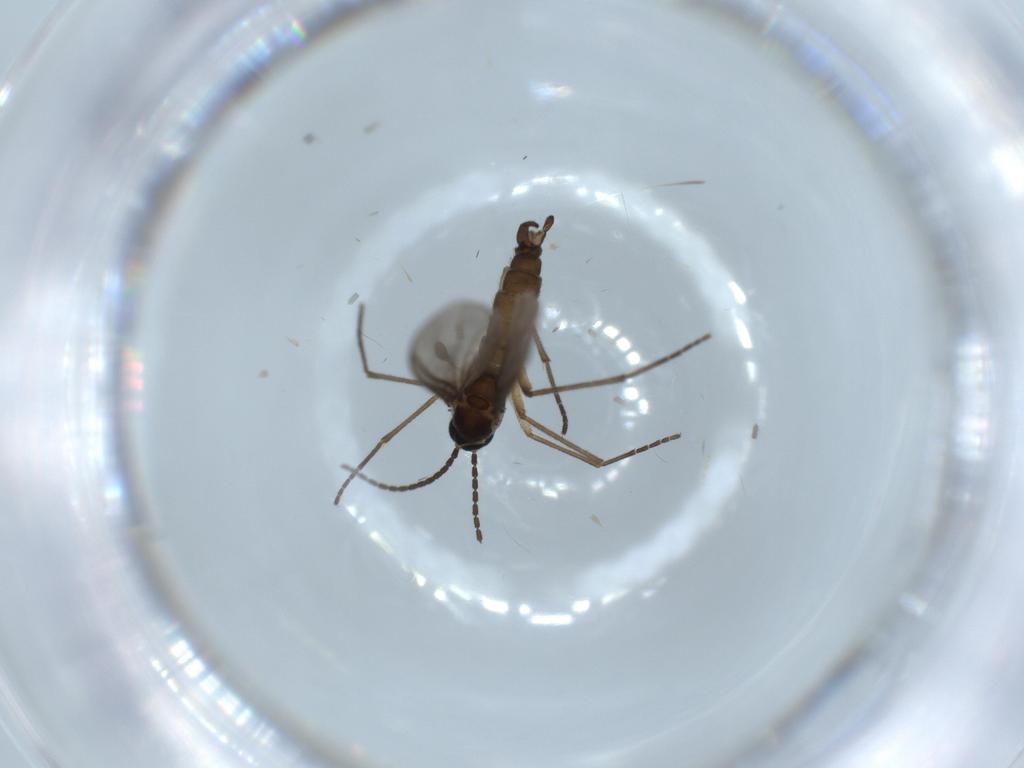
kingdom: Animalia
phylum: Arthropoda
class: Insecta
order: Diptera
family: Sciaridae
